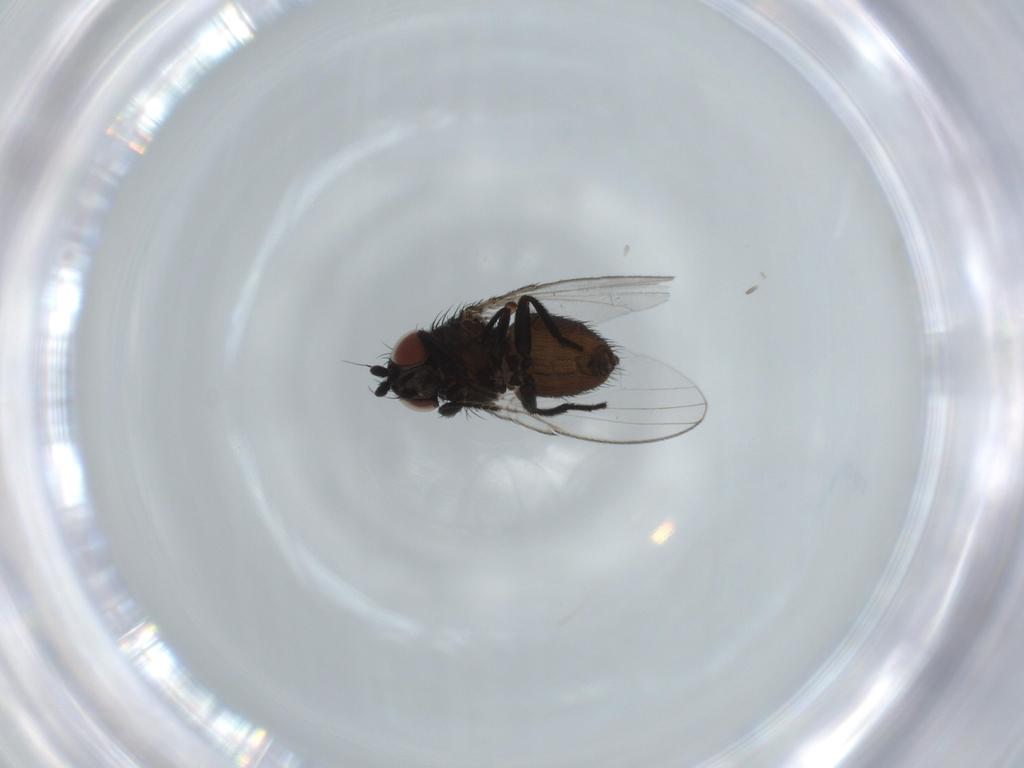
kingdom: Animalia
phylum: Arthropoda
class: Insecta
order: Diptera
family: Milichiidae
